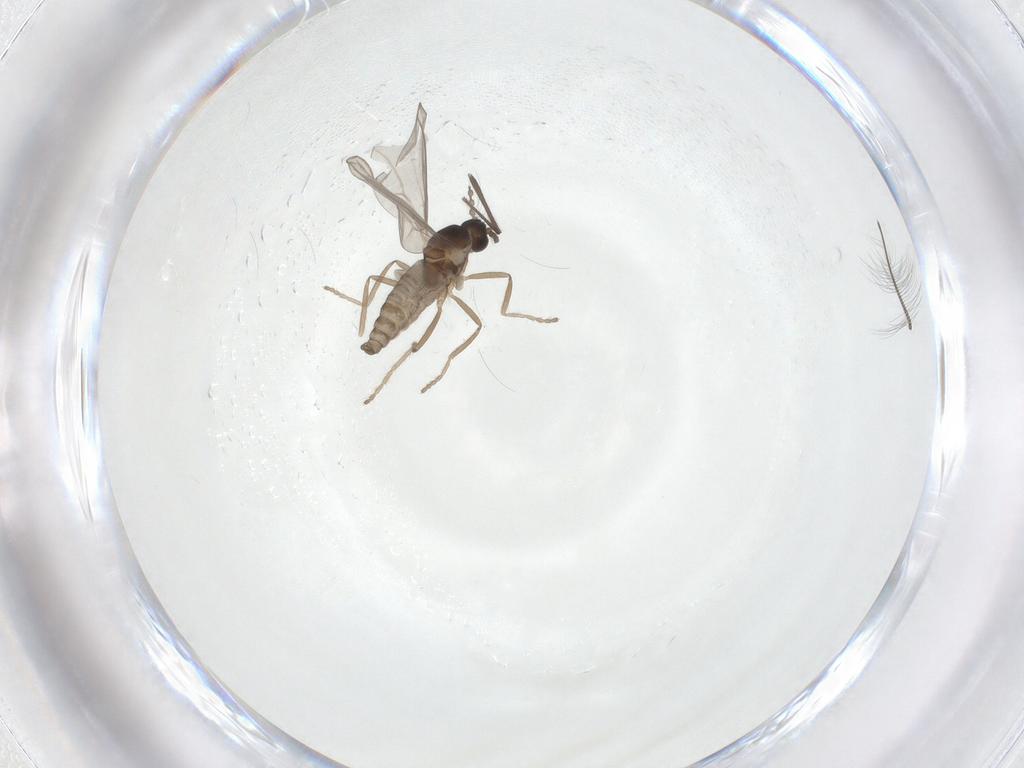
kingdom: Animalia
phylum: Arthropoda
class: Insecta
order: Diptera
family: Cecidomyiidae
